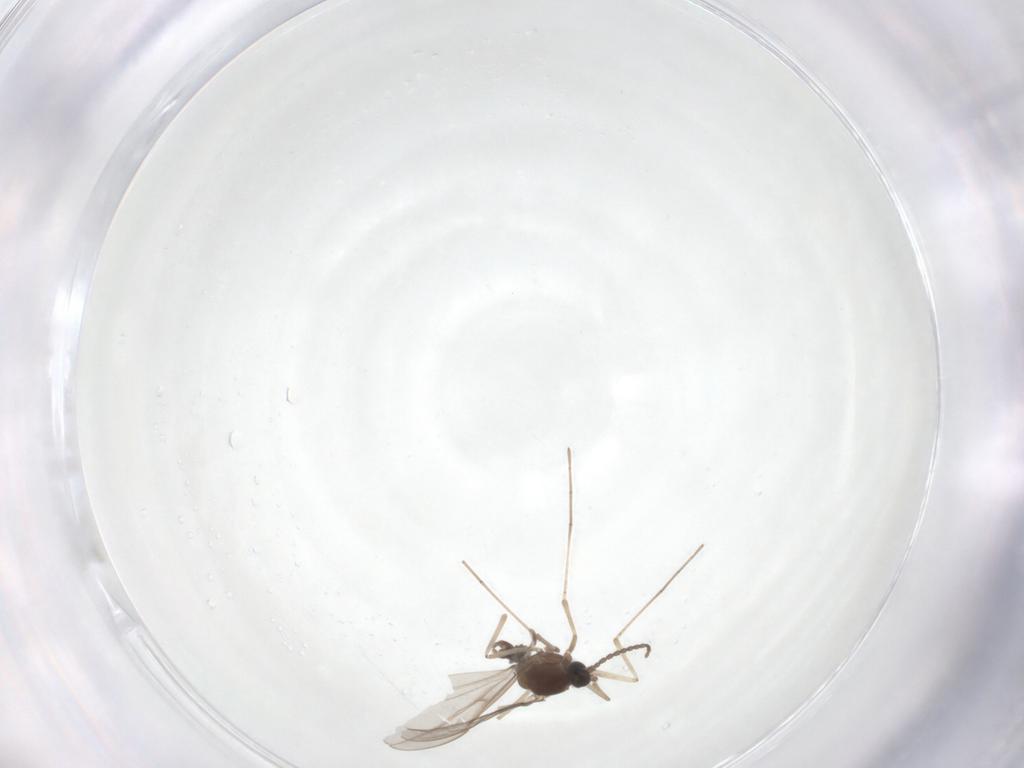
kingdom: Animalia
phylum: Arthropoda
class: Insecta
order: Diptera
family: Cecidomyiidae
